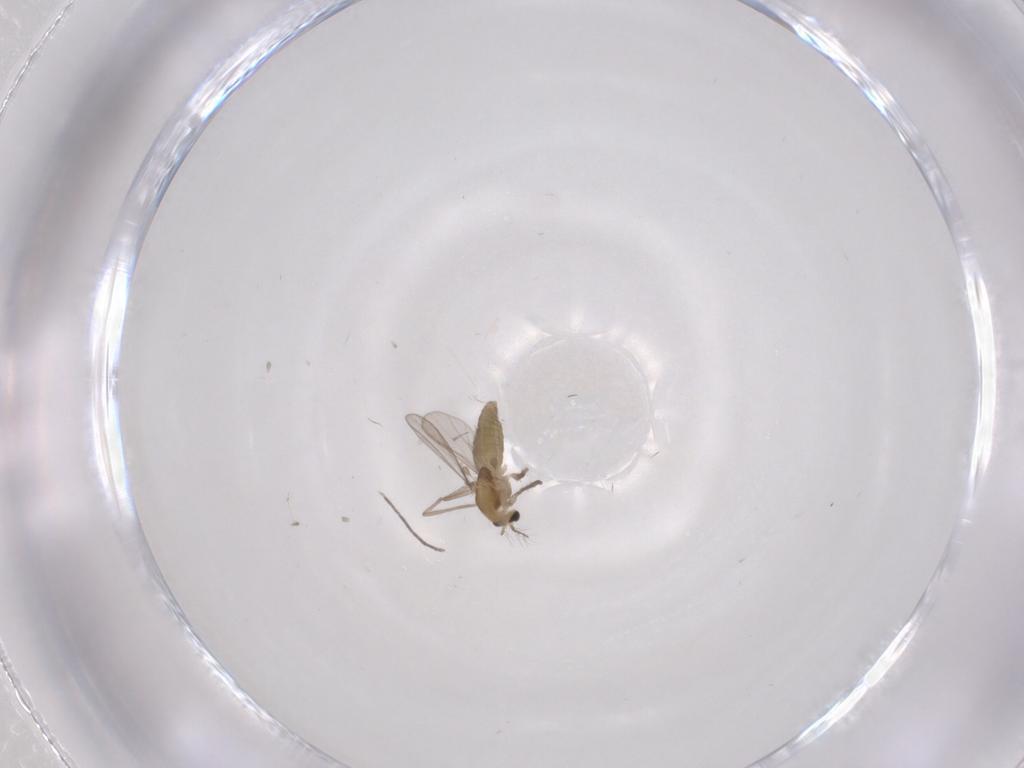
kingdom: Animalia
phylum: Arthropoda
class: Insecta
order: Diptera
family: Chironomidae
